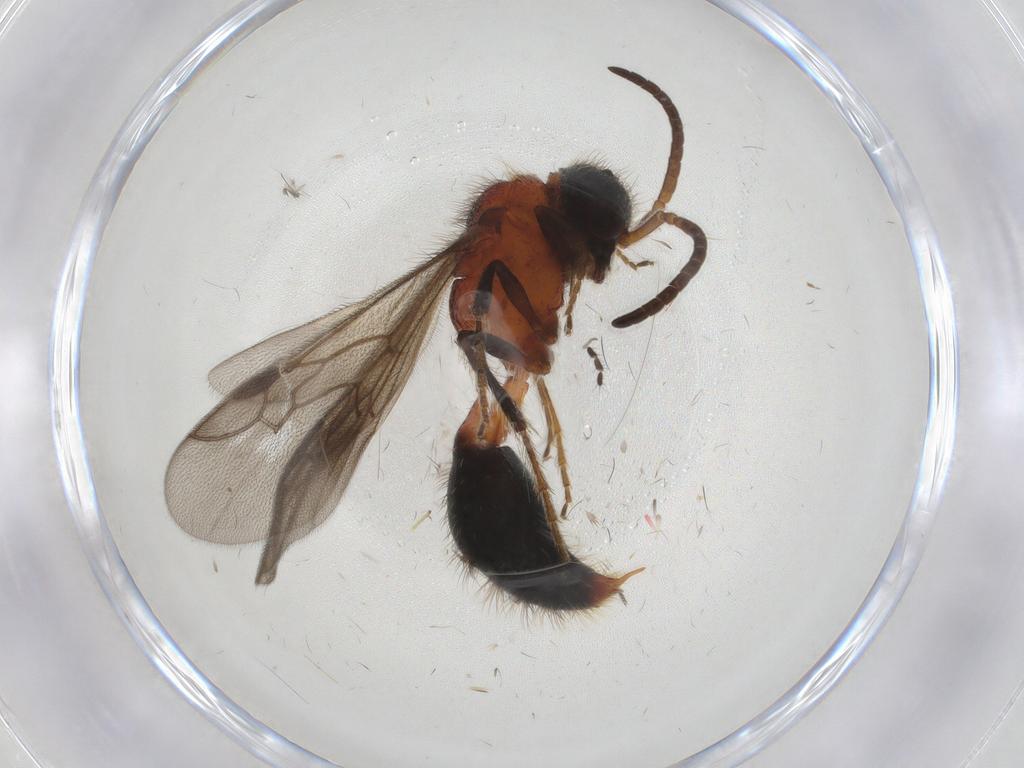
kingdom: Animalia
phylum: Arthropoda
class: Insecta
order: Hymenoptera
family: Mutillidae
